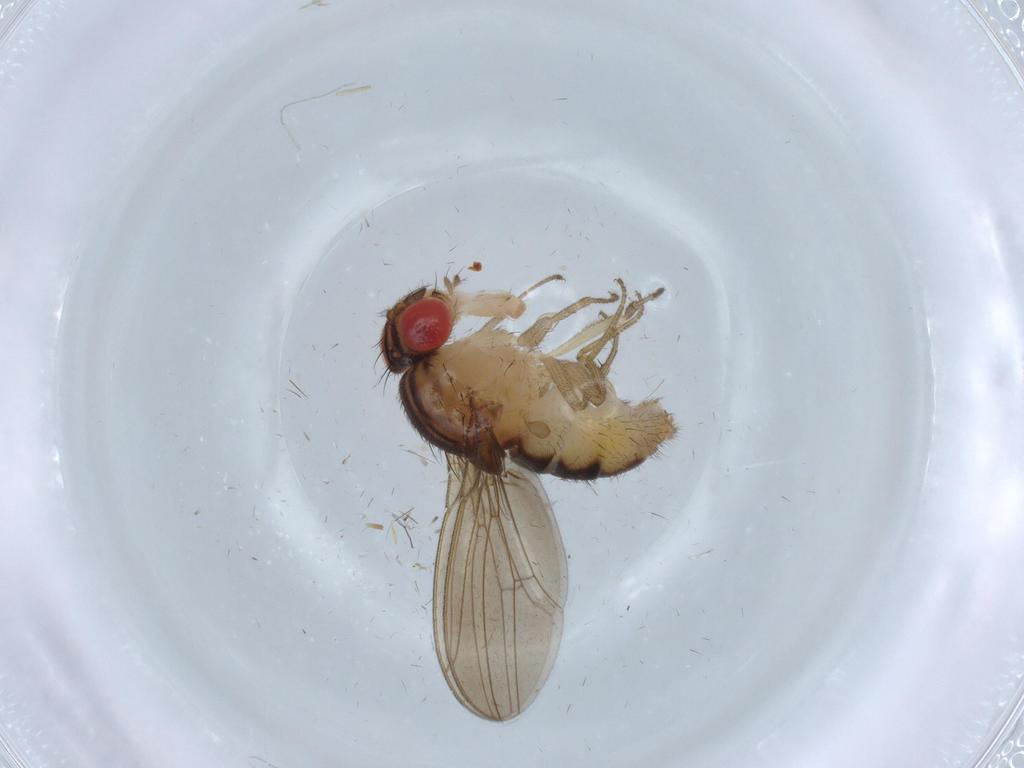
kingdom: Animalia
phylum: Arthropoda
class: Insecta
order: Diptera
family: Drosophilidae
